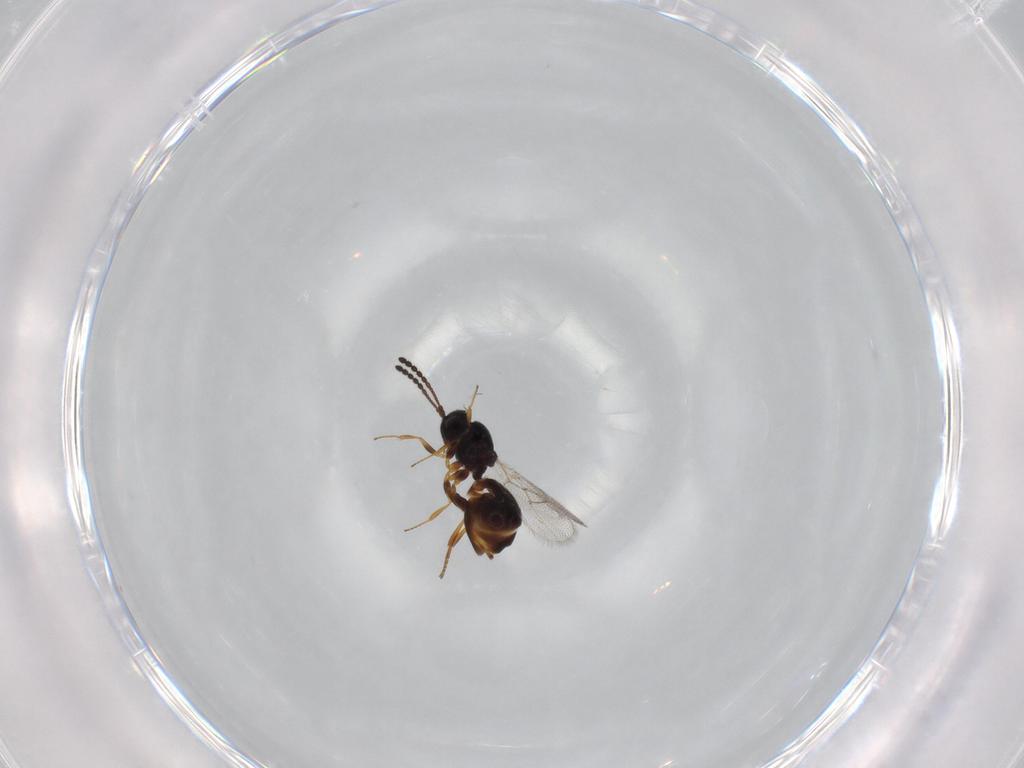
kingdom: Animalia
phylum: Arthropoda
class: Insecta
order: Hymenoptera
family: Figitidae
